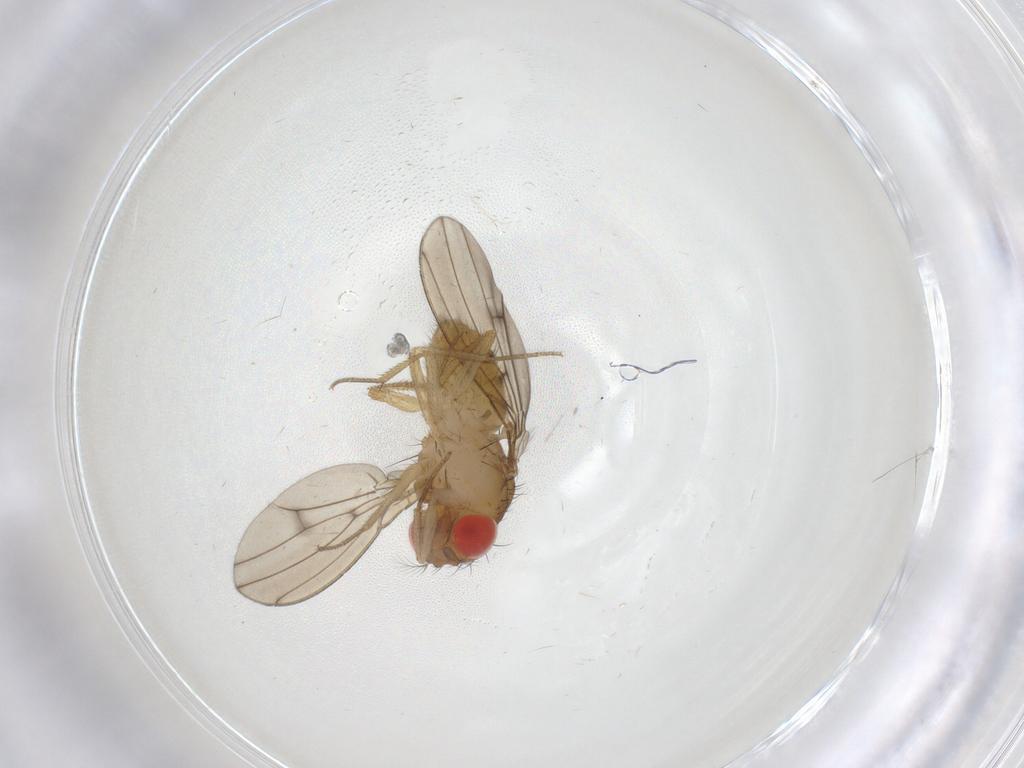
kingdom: Animalia
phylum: Arthropoda
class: Insecta
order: Diptera
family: Drosophilidae
